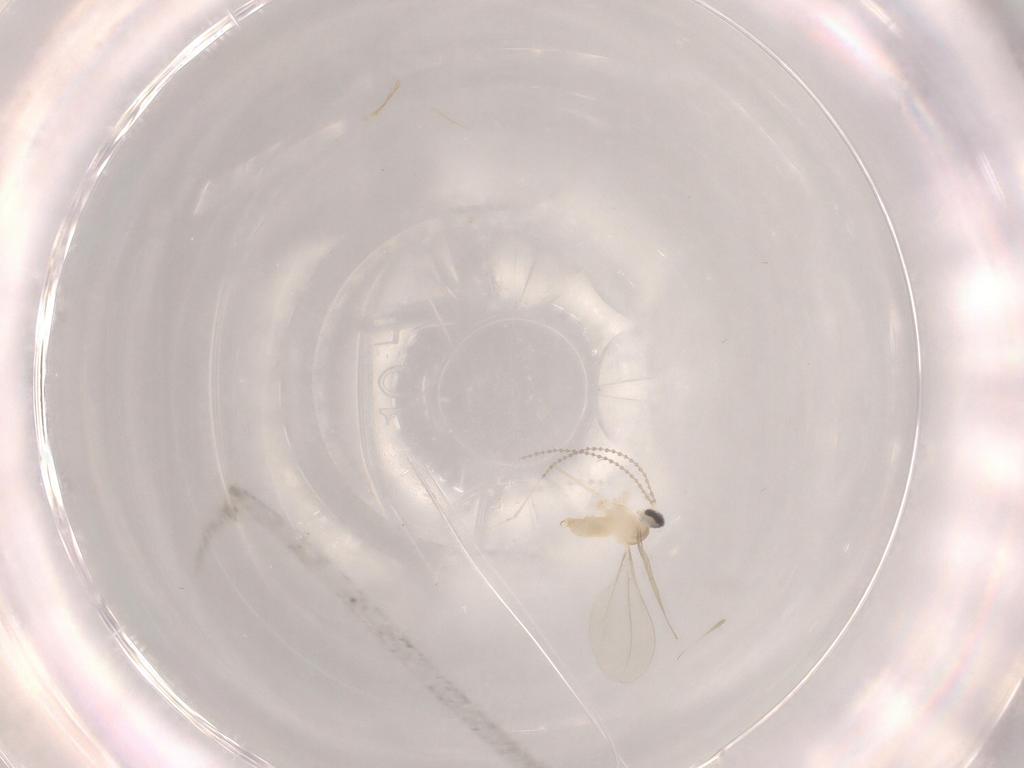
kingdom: Animalia
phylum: Arthropoda
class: Insecta
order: Diptera
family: Cecidomyiidae
